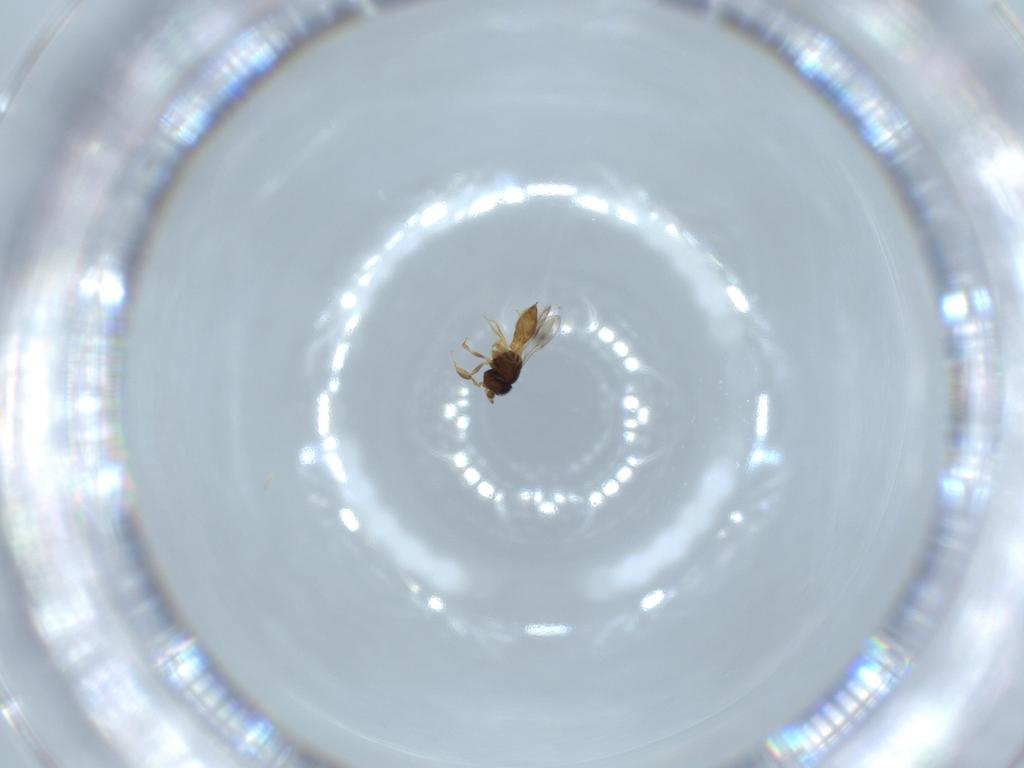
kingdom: Animalia
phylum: Arthropoda
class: Insecta
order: Hymenoptera
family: Scelionidae
